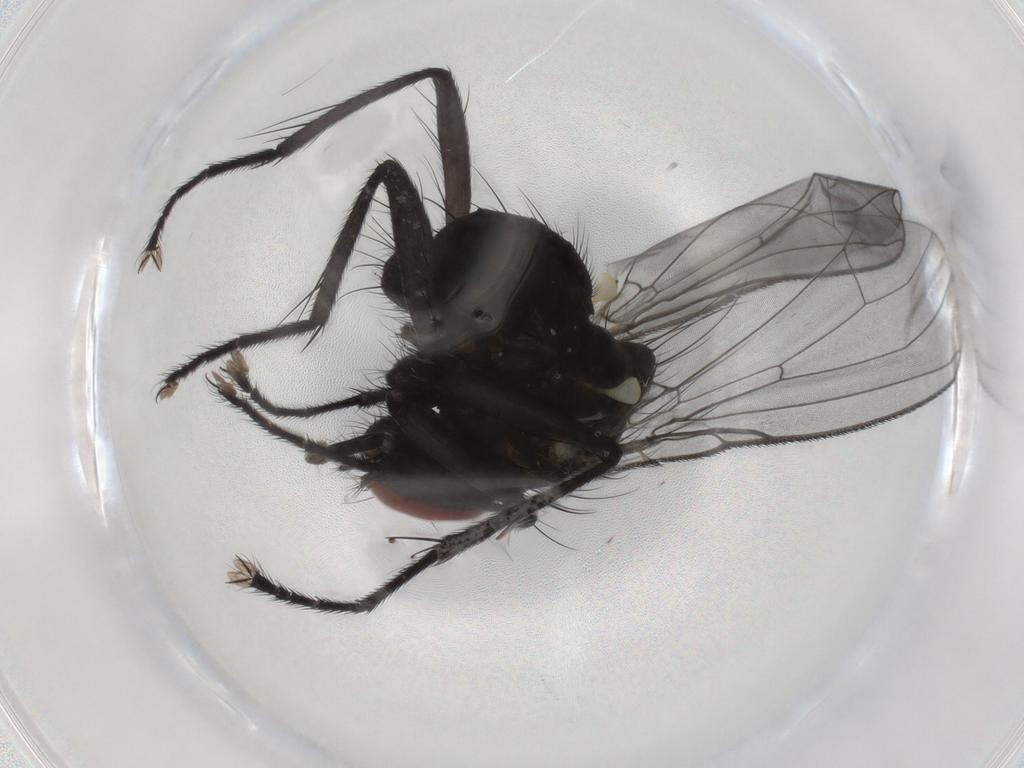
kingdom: Animalia
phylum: Arthropoda
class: Insecta
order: Diptera
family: Muscidae
